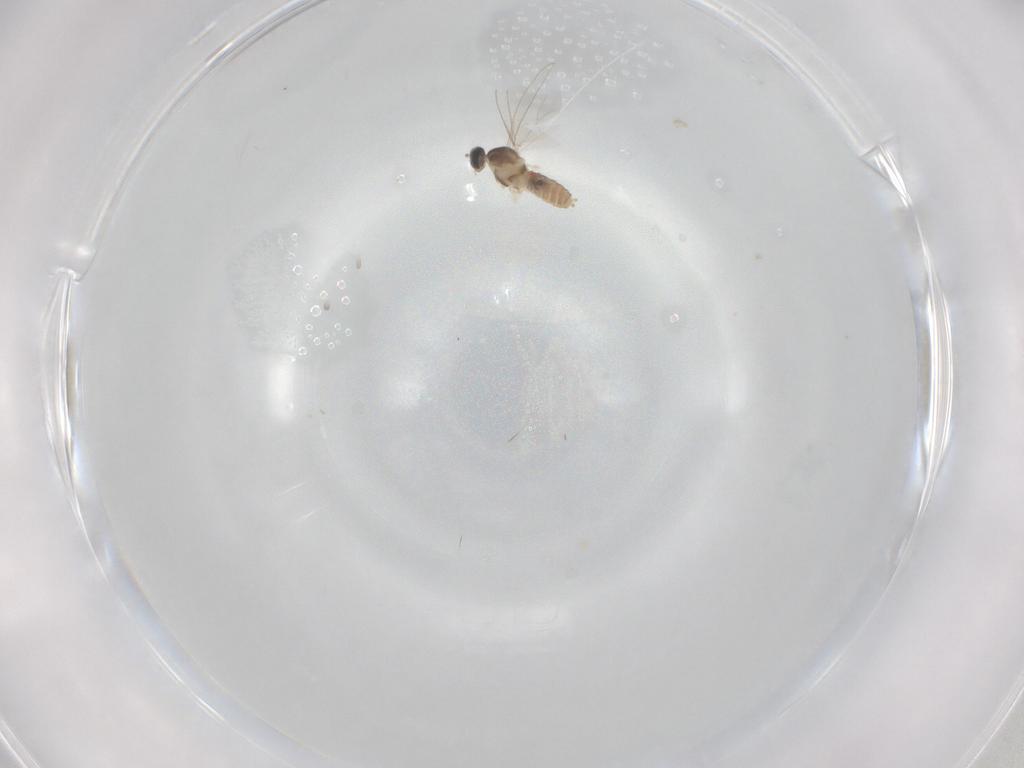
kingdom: Animalia
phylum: Arthropoda
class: Insecta
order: Diptera
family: Cecidomyiidae
